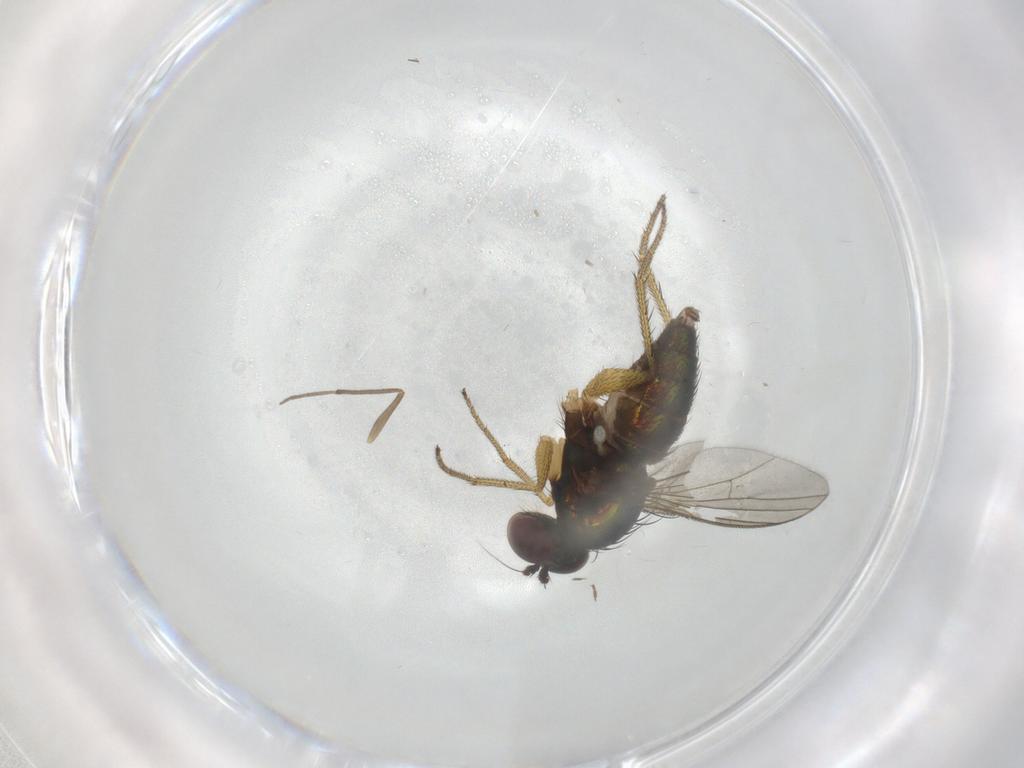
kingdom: Animalia
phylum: Arthropoda
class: Insecta
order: Diptera
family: Chironomidae
